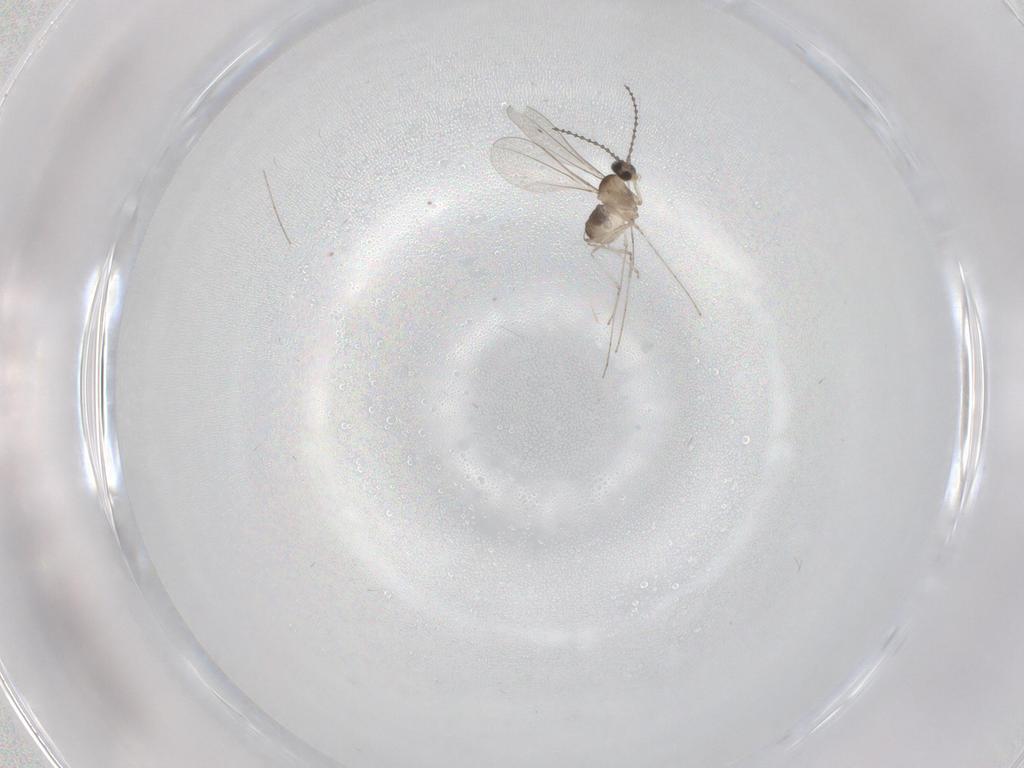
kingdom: Animalia
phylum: Arthropoda
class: Insecta
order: Diptera
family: Cecidomyiidae
